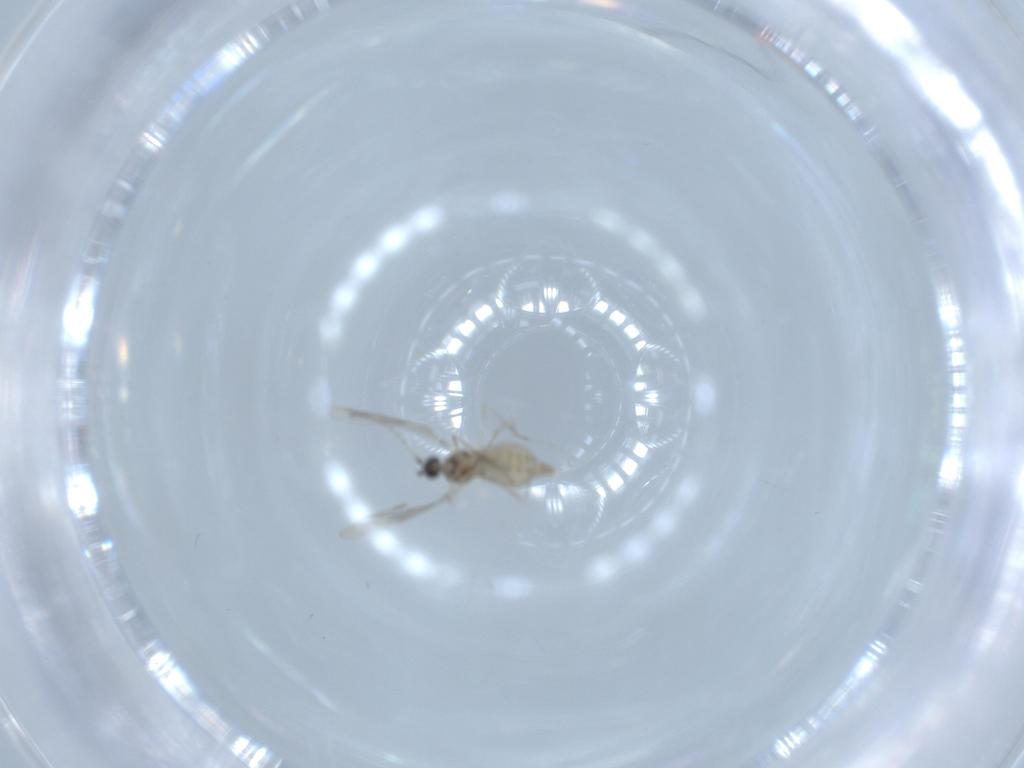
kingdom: Animalia
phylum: Arthropoda
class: Insecta
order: Diptera
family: Cecidomyiidae
